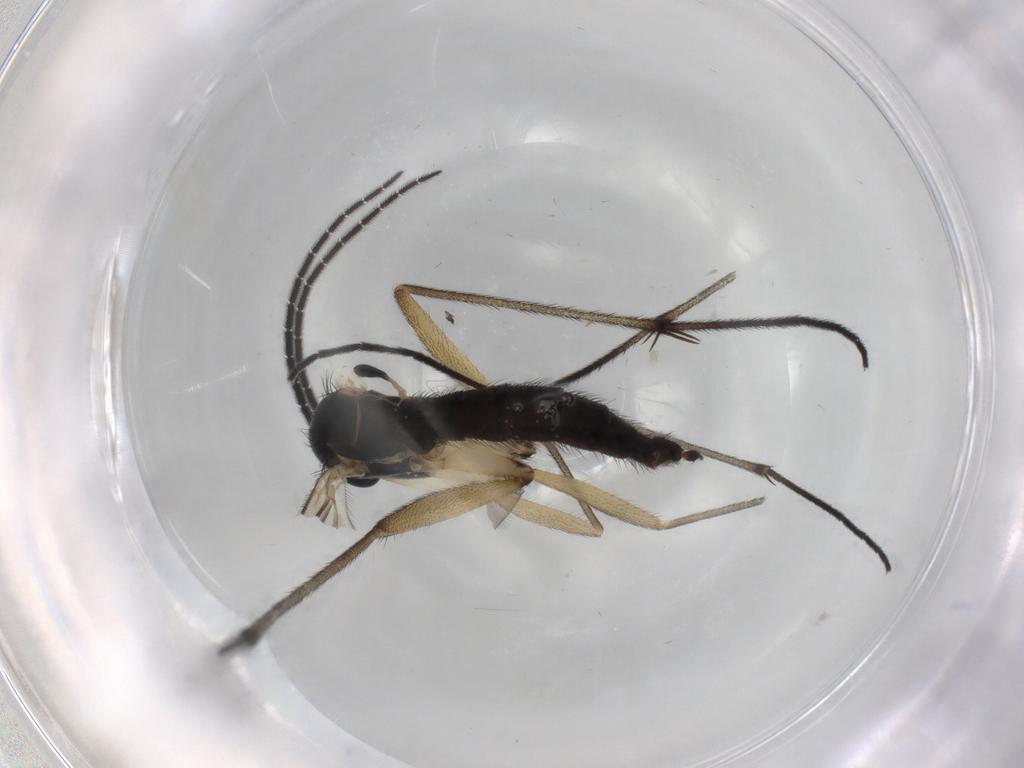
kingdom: Animalia
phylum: Arthropoda
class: Insecta
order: Diptera
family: Sciaridae
